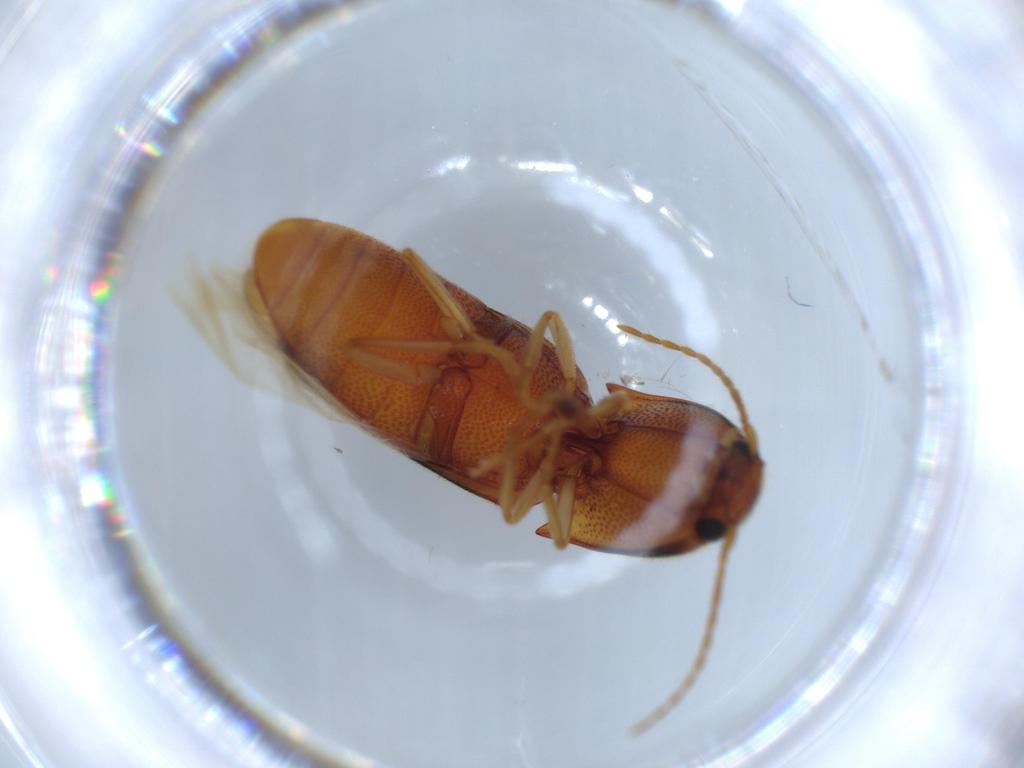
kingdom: Animalia
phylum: Arthropoda
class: Insecta
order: Coleoptera
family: Elateridae
